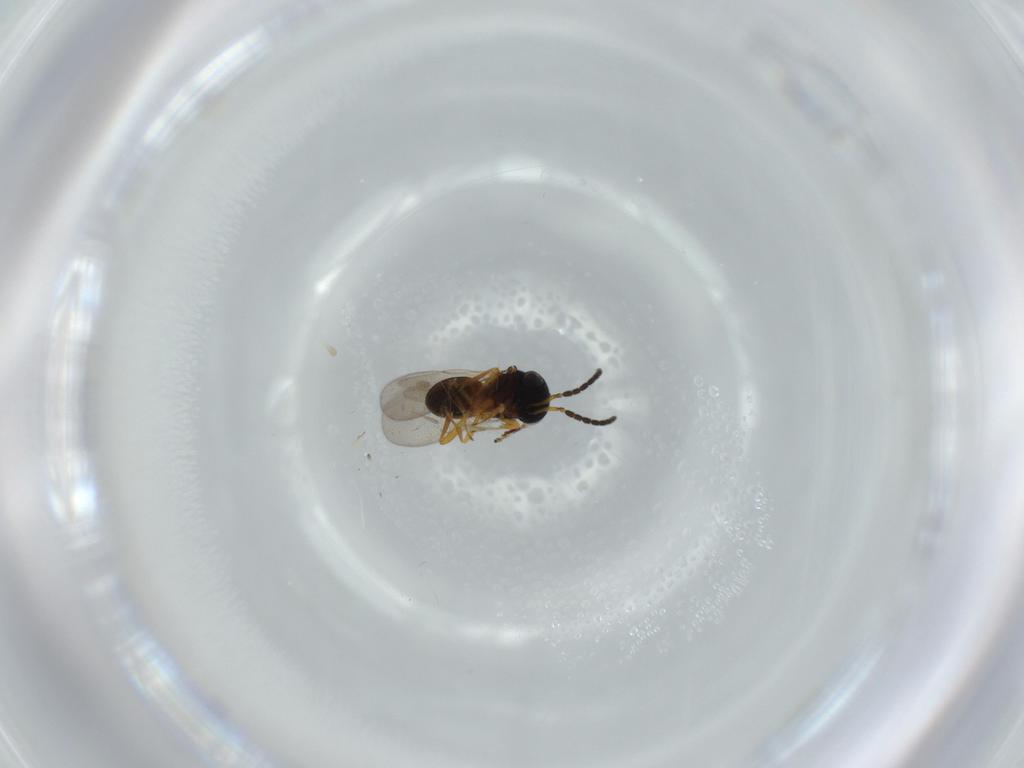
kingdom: Animalia
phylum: Arthropoda
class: Insecta
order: Coleoptera
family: Curculionidae
